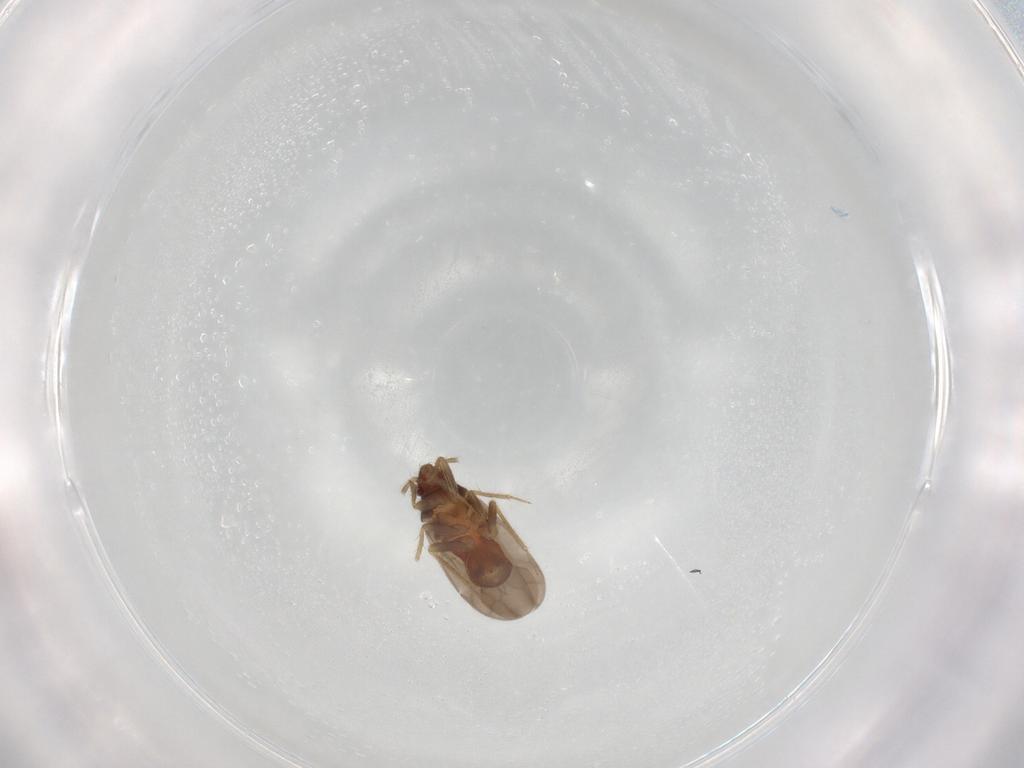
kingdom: Animalia
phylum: Arthropoda
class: Insecta
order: Hemiptera
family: Ceratocombidae
